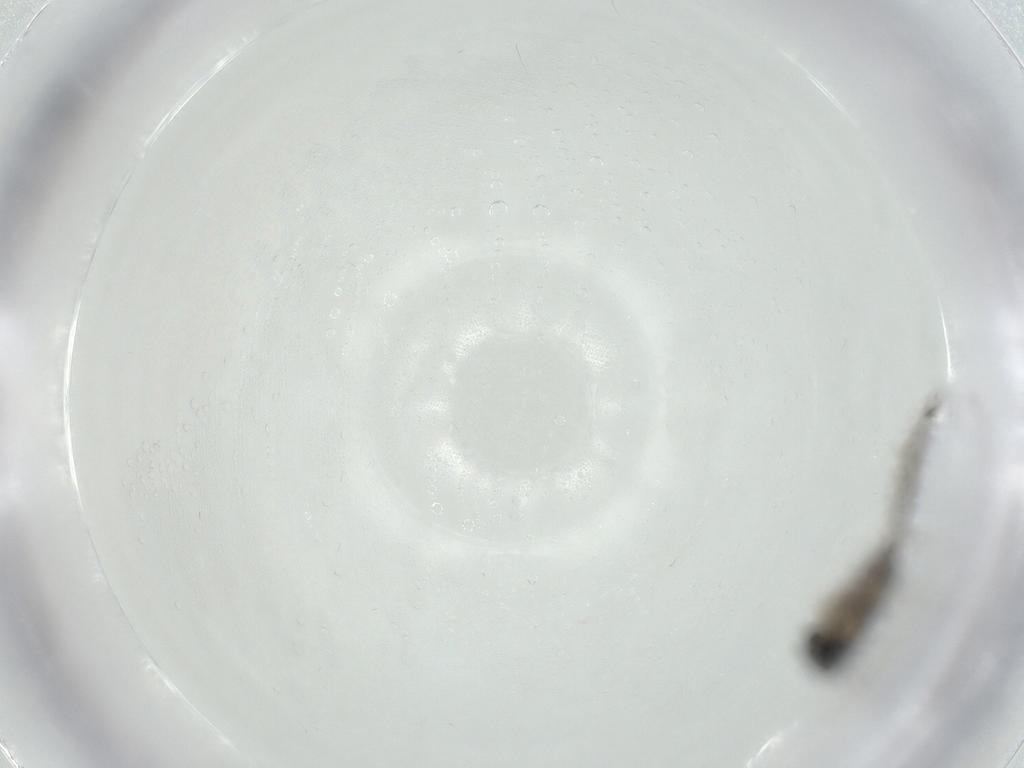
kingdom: Animalia
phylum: Arthropoda
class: Insecta
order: Diptera
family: Cecidomyiidae
